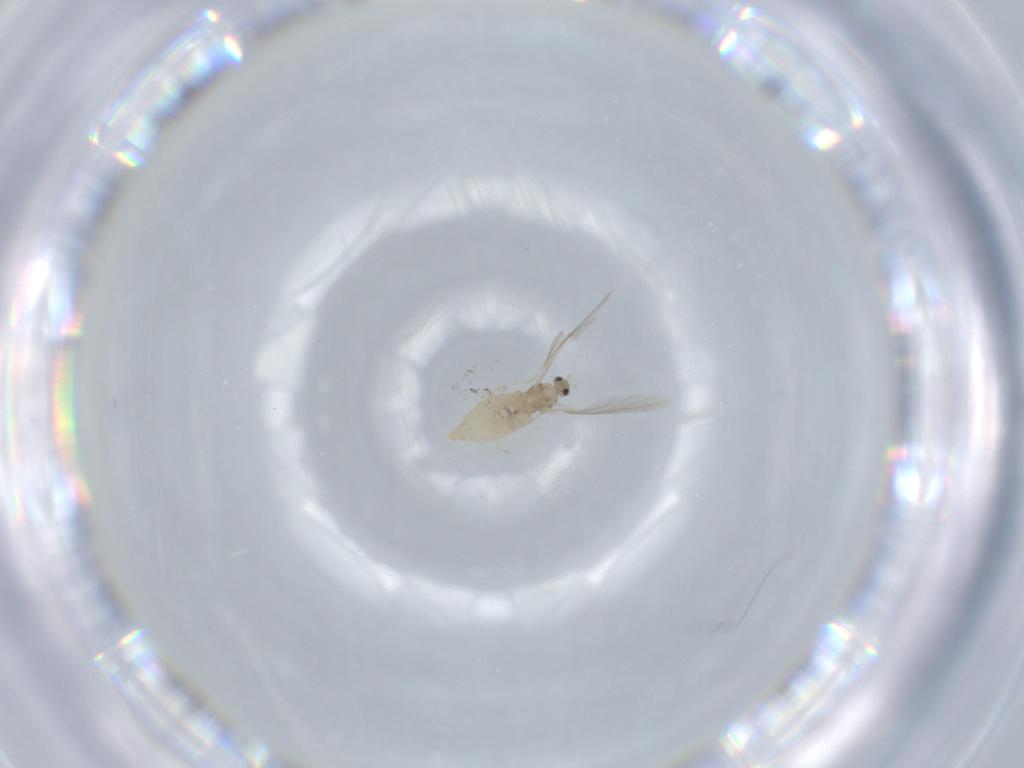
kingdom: Animalia
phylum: Arthropoda
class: Insecta
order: Diptera
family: Cecidomyiidae
